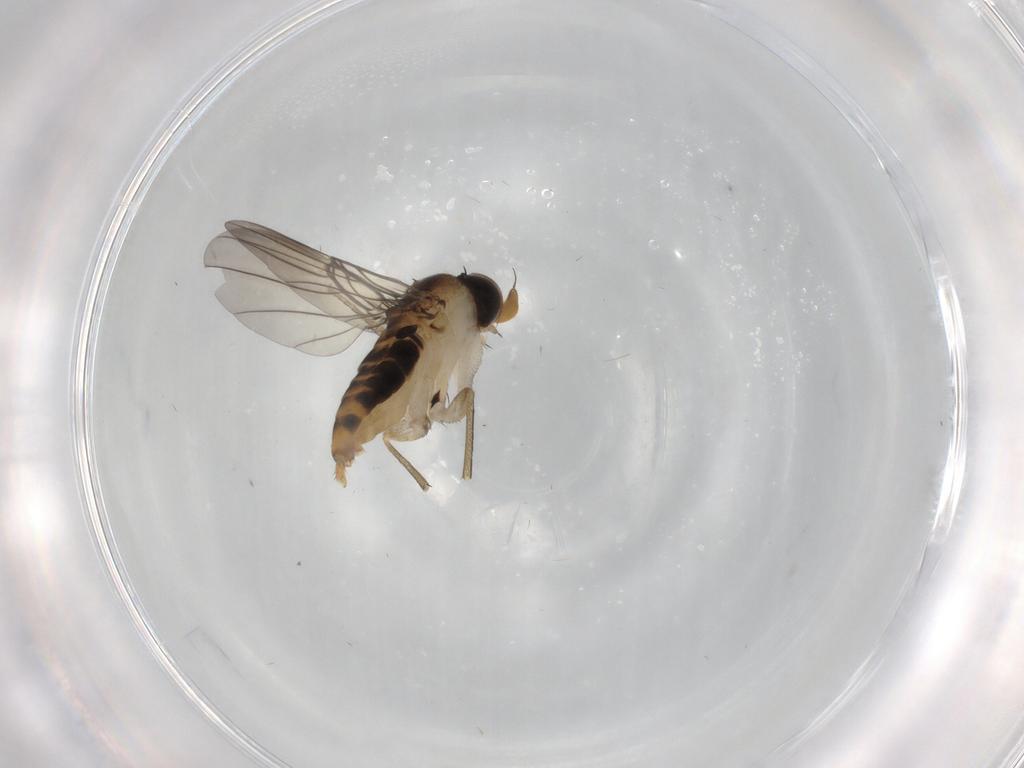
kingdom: Animalia
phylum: Arthropoda
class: Insecta
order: Diptera
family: Phoridae
